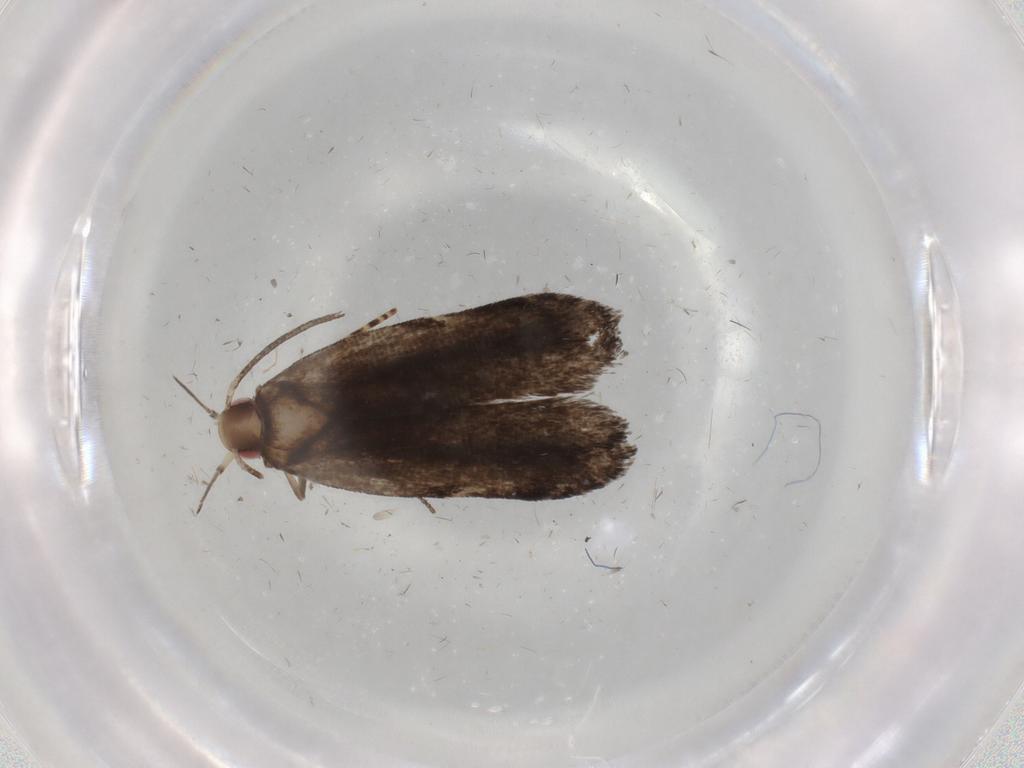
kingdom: Animalia
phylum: Arthropoda
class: Insecta
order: Lepidoptera
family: Gelechiidae
